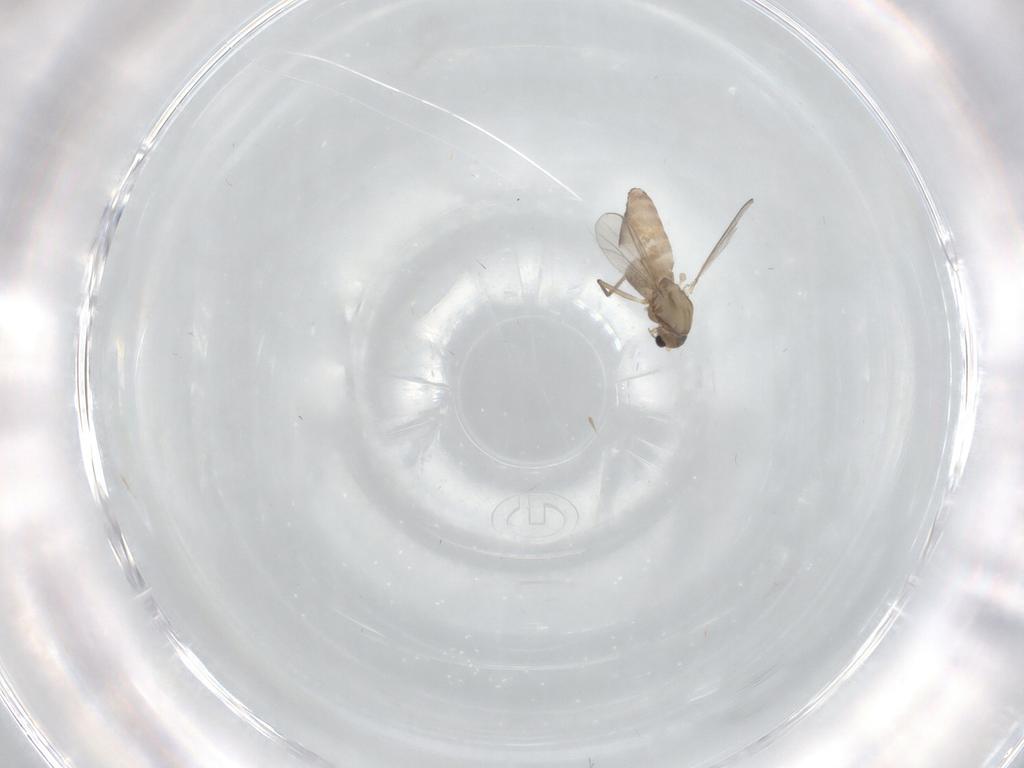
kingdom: Animalia
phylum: Arthropoda
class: Insecta
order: Diptera
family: Chironomidae
